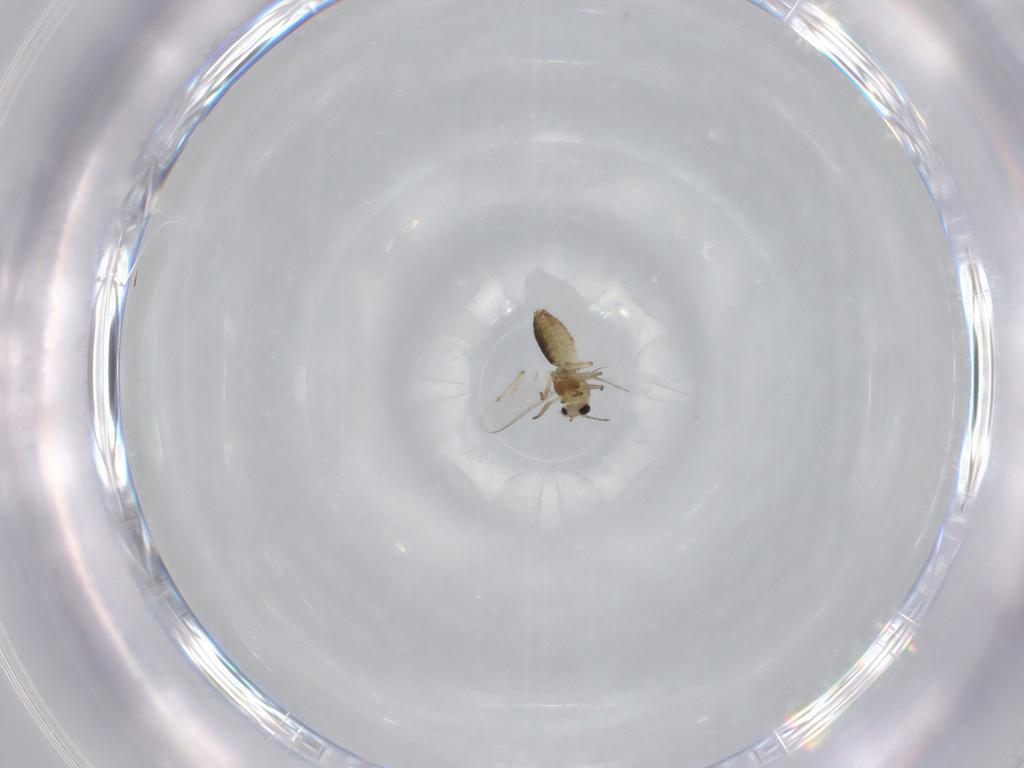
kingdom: Animalia
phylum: Arthropoda
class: Insecta
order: Diptera
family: Chironomidae
